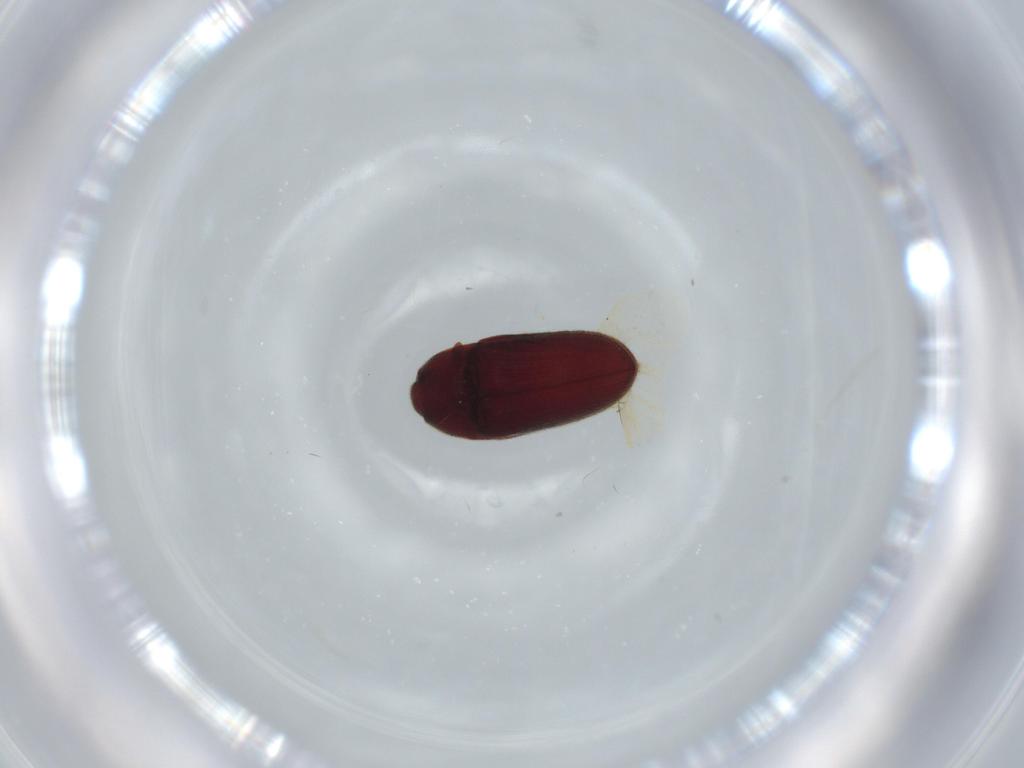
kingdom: Animalia
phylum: Arthropoda
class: Insecta
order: Coleoptera
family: Throscidae
